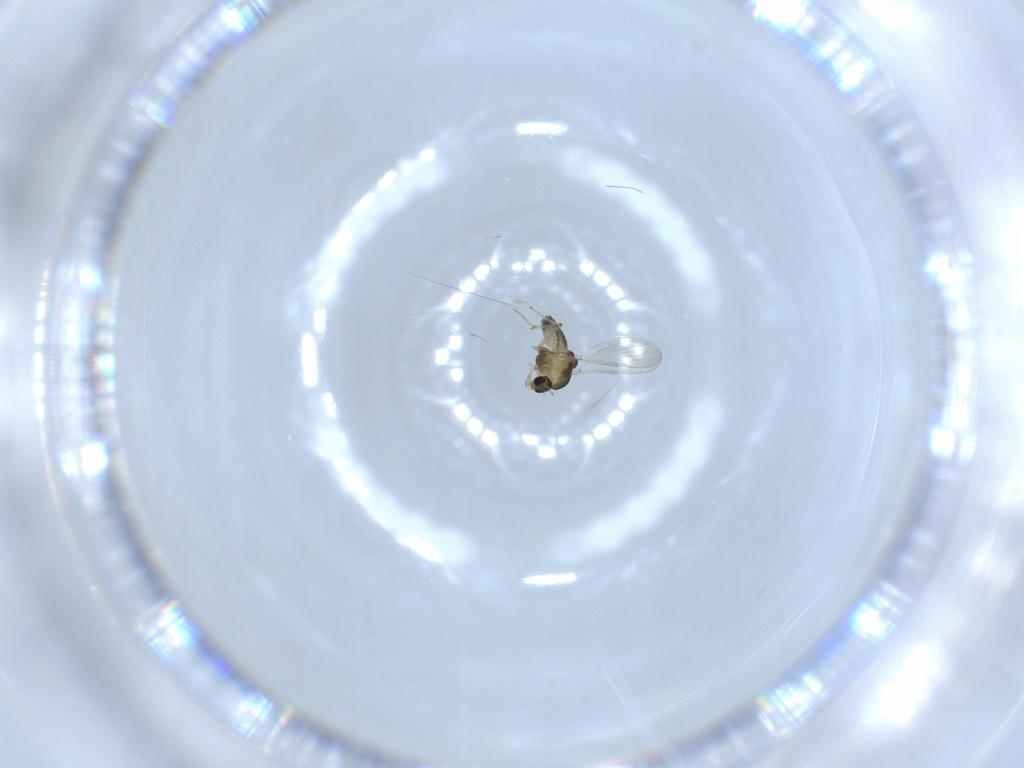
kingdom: Animalia
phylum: Arthropoda
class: Insecta
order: Diptera
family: Chironomidae
